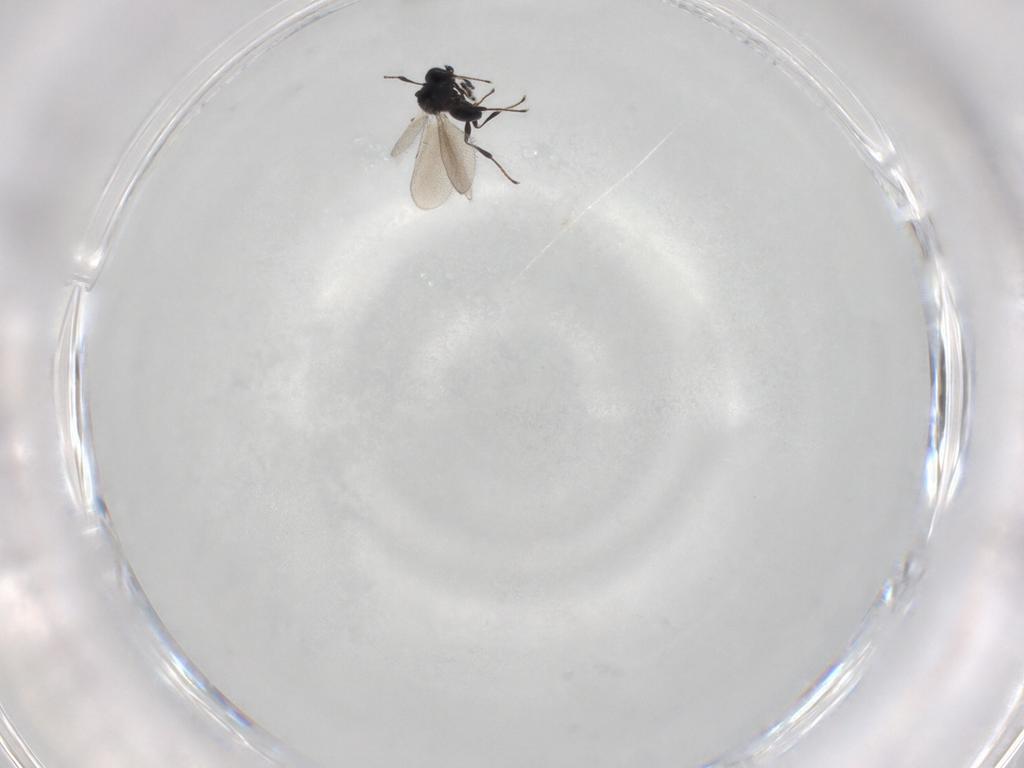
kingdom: Animalia
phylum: Arthropoda
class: Insecta
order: Hymenoptera
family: Platygastridae
